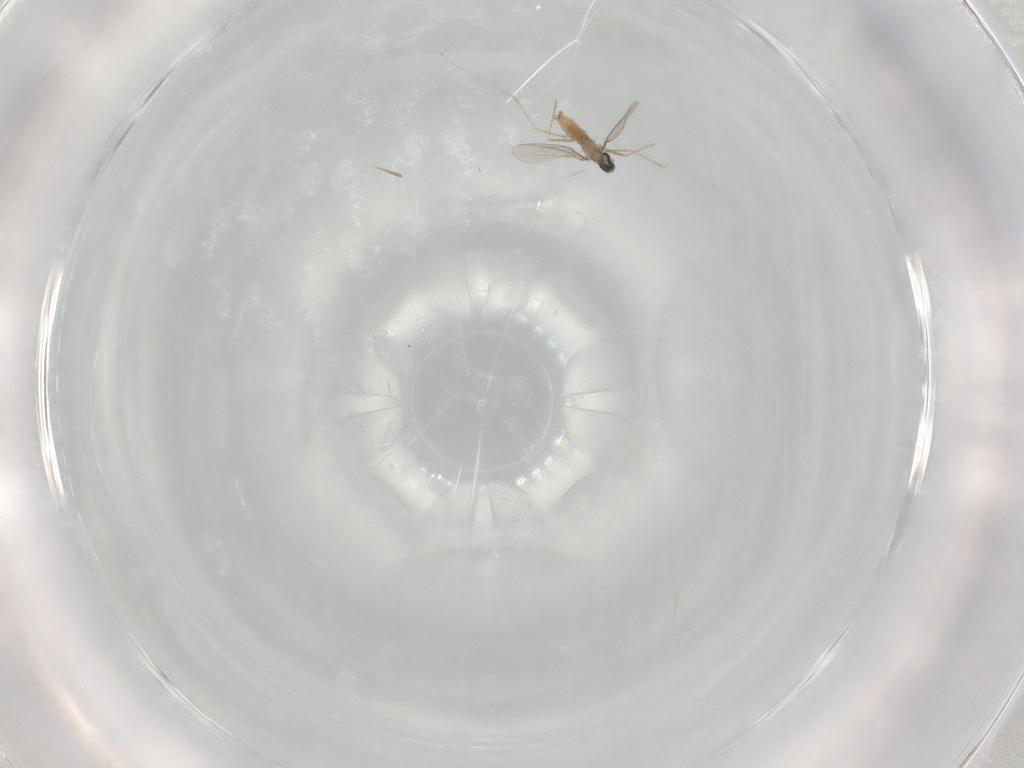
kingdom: Animalia
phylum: Arthropoda
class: Insecta
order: Diptera
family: Cecidomyiidae
